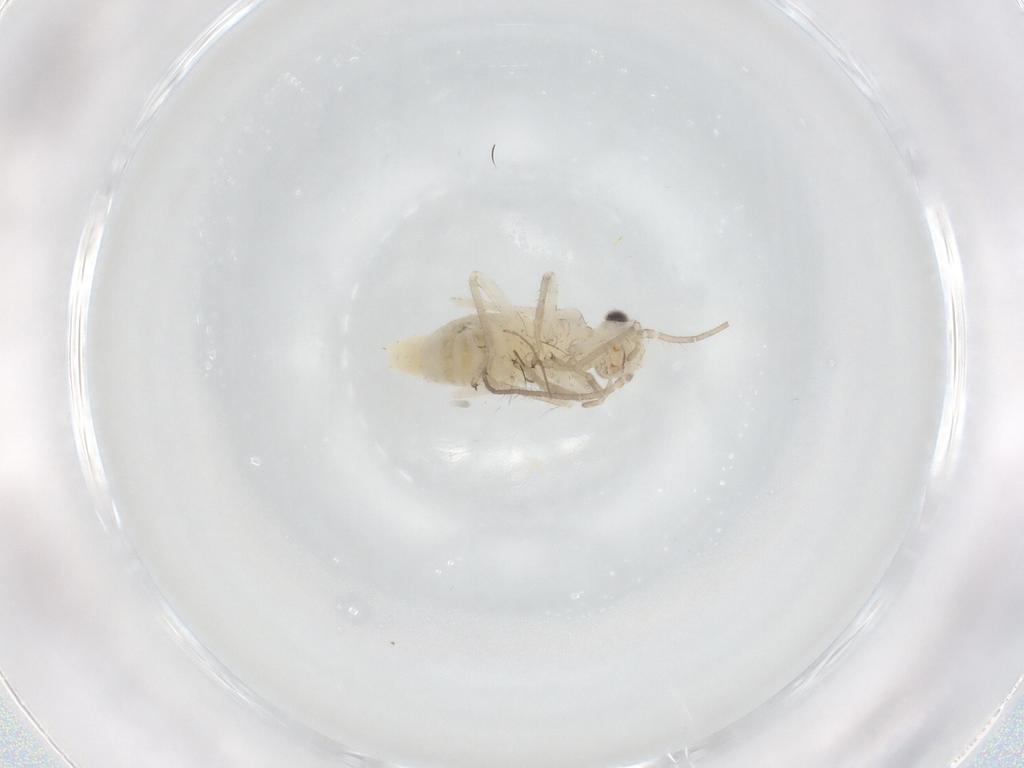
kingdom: Animalia
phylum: Arthropoda
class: Insecta
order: Psocodea
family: Caeciliusidae
